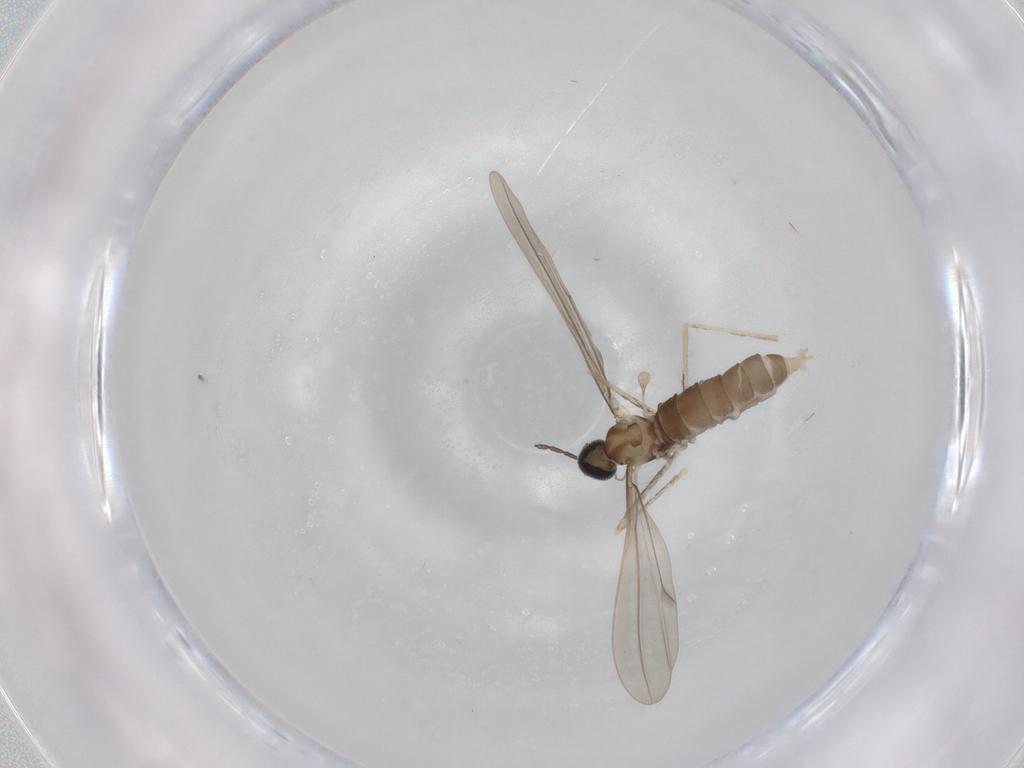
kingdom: Animalia
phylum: Arthropoda
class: Insecta
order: Diptera
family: Cecidomyiidae
